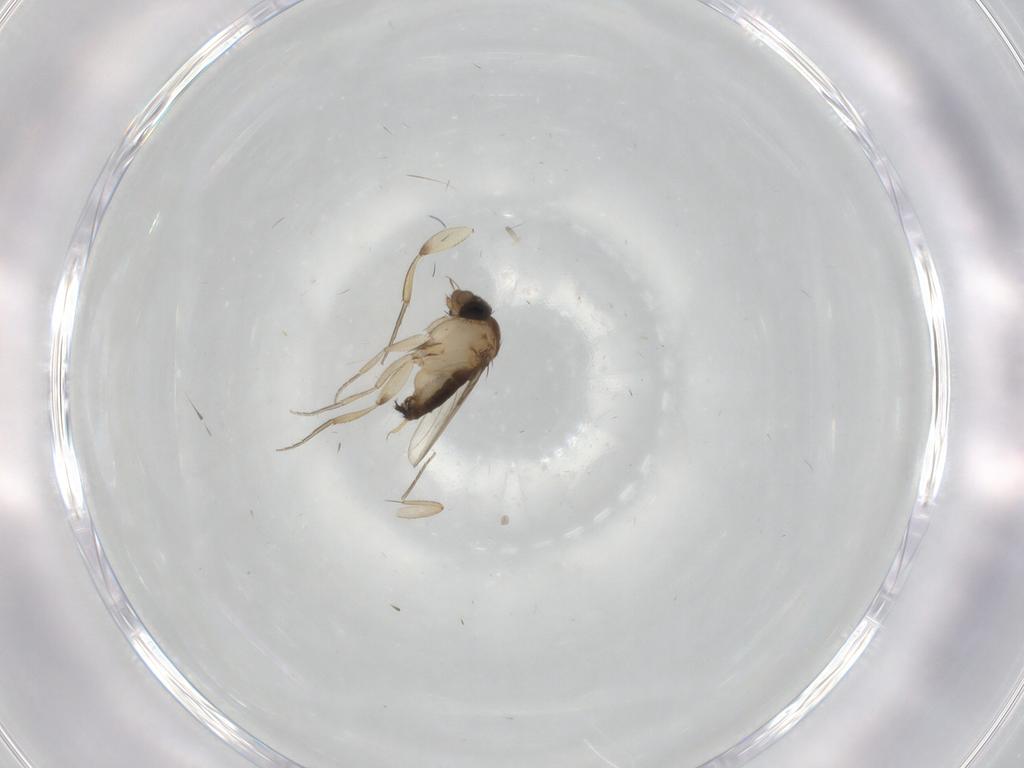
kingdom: Animalia
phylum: Arthropoda
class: Insecta
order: Diptera
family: Phoridae
